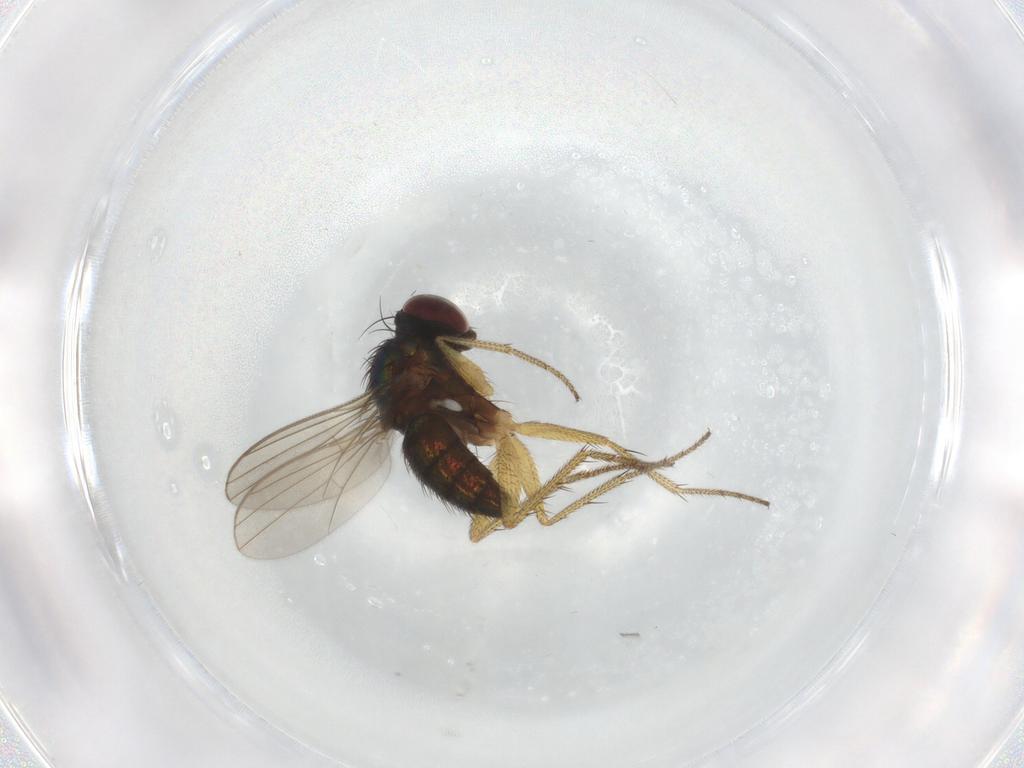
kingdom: Animalia
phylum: Arthropoda
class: Insecta
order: Diptera
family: Dolichopodidae
